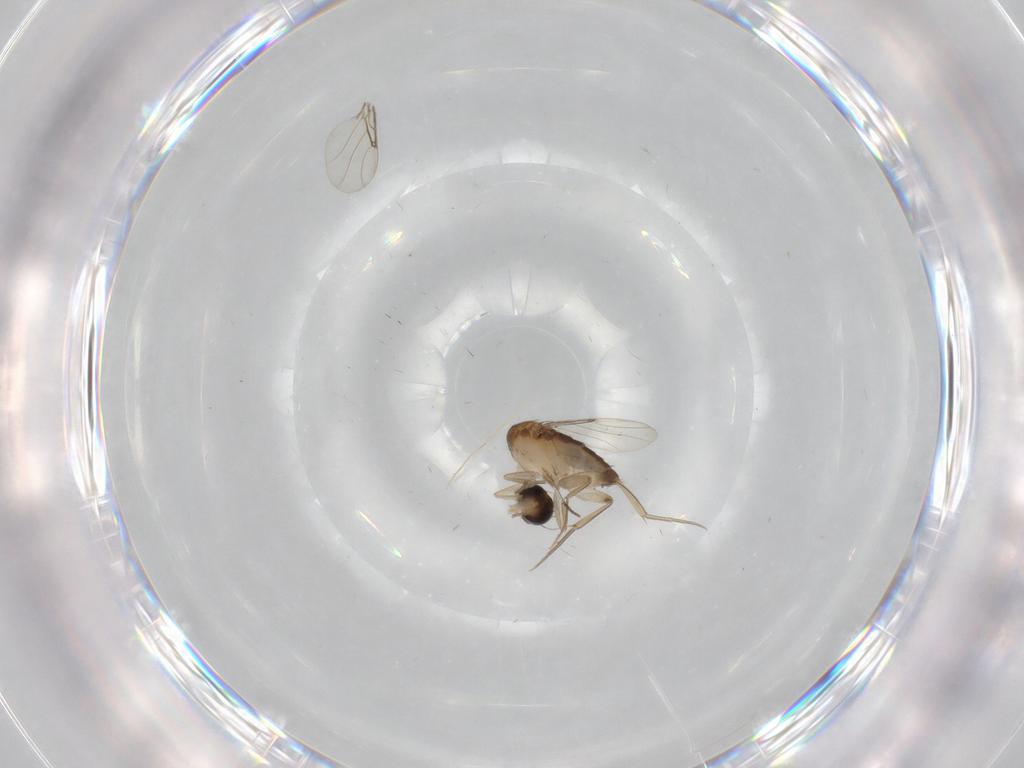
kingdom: Animalia
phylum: Arthropoda
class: Insecta
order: Diptera
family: Phoridae
